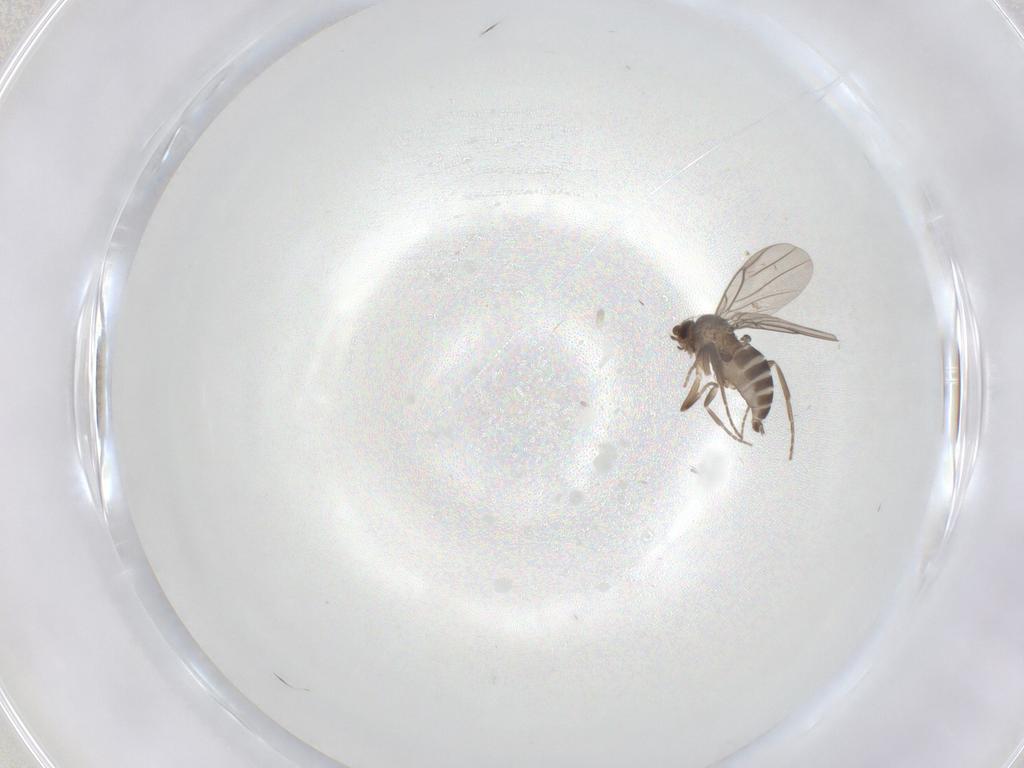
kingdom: Animalia
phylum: Arthropoda
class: Insecta
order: Diptera
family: Phoridae
